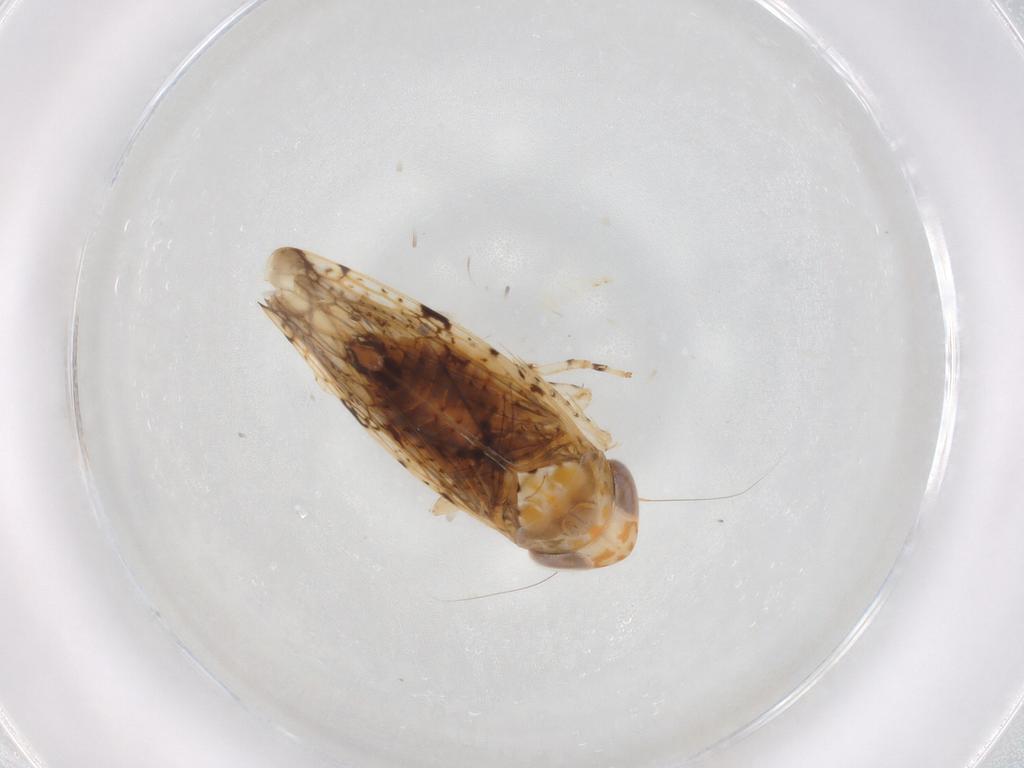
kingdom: Animalia
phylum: Arthropoda
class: Insecta
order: Hemiptera
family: Cicadellidae
